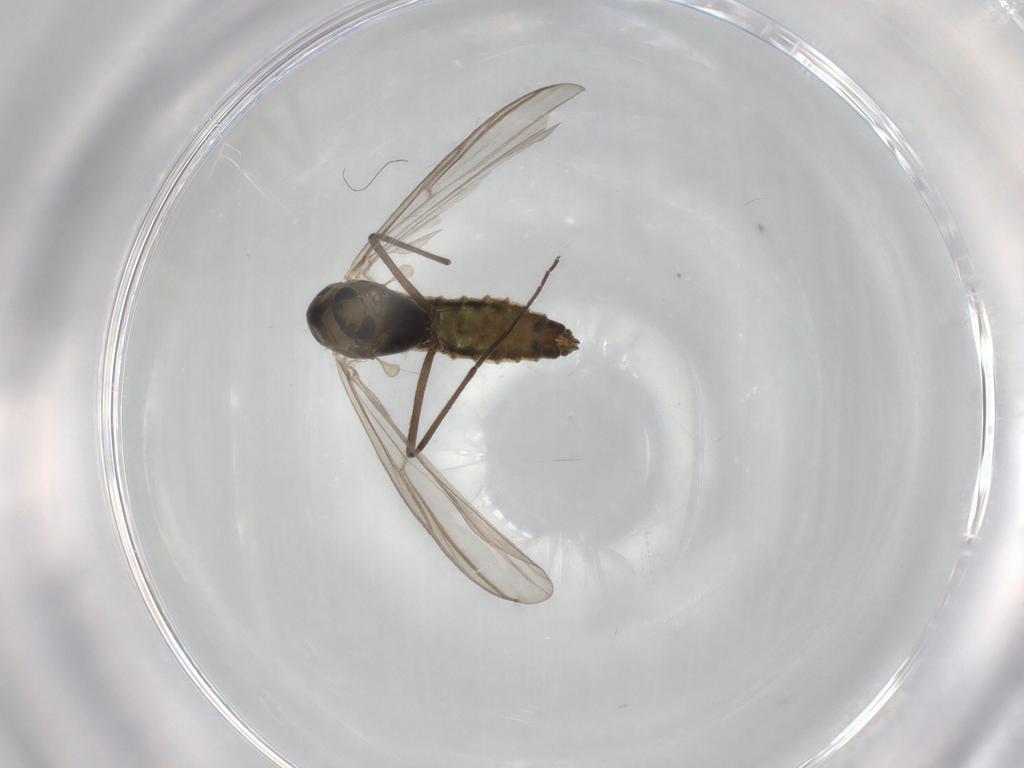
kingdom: Animalia
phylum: Arthropoda
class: Insecta
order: Diptera
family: Chironomidae
